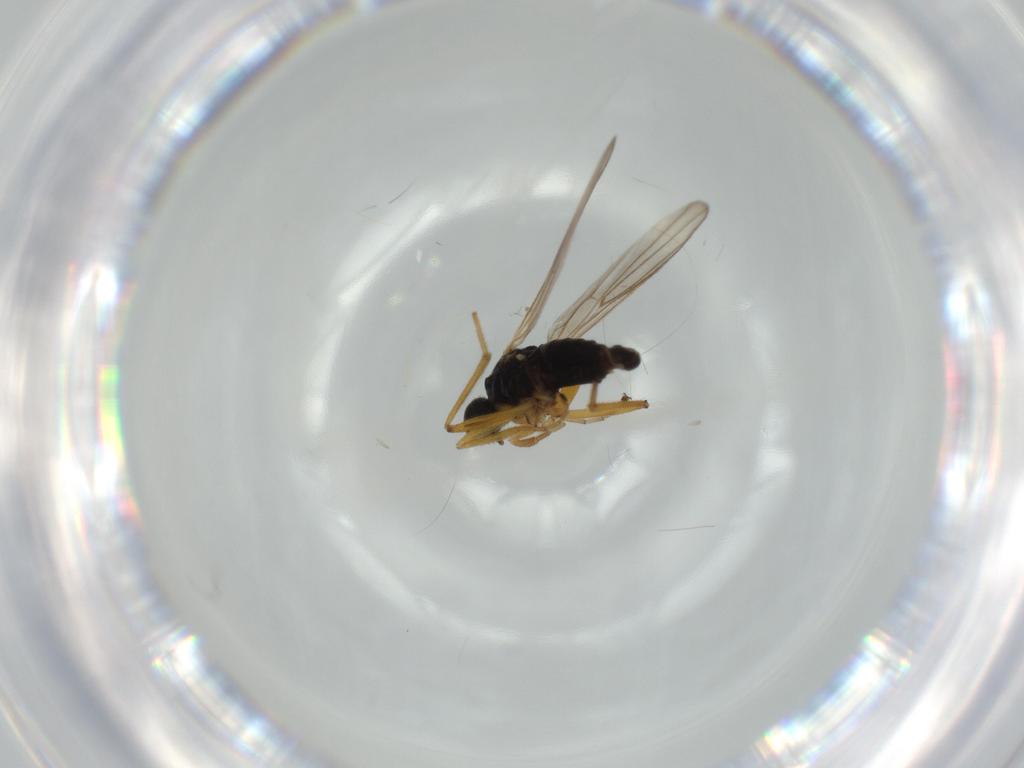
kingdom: Animalia
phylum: Arthropoda
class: Insecta
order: Diptera
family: Chironomidae
